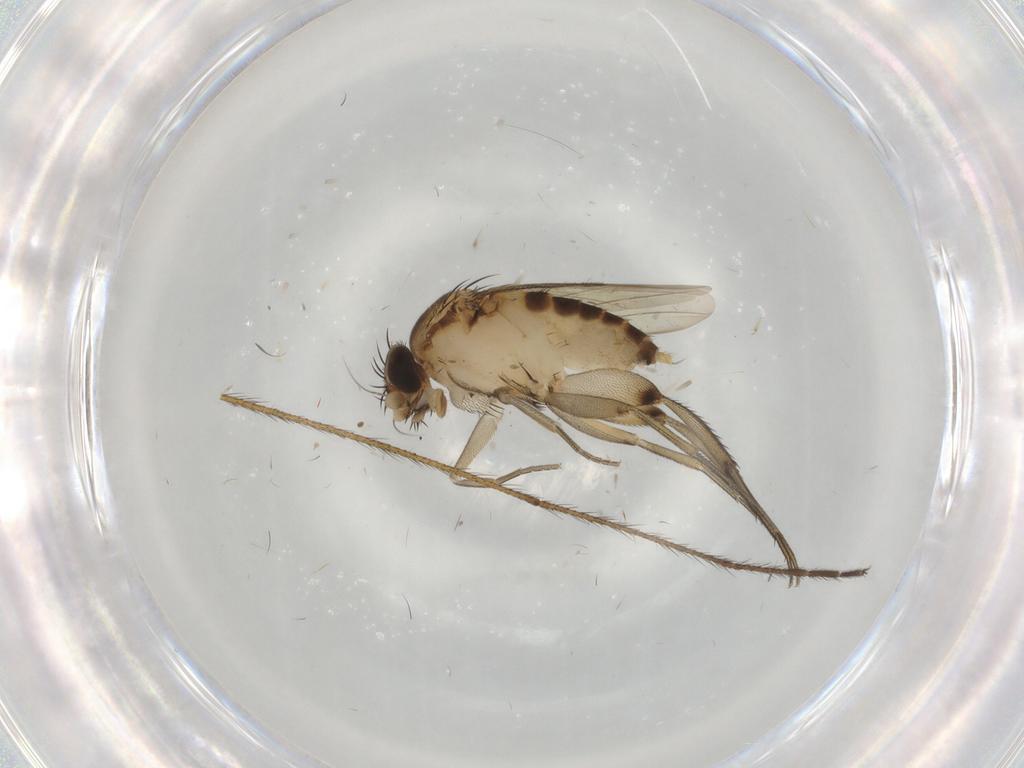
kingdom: Animalia
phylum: Arthropoda
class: Insecta
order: Diptera
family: Phoridae
